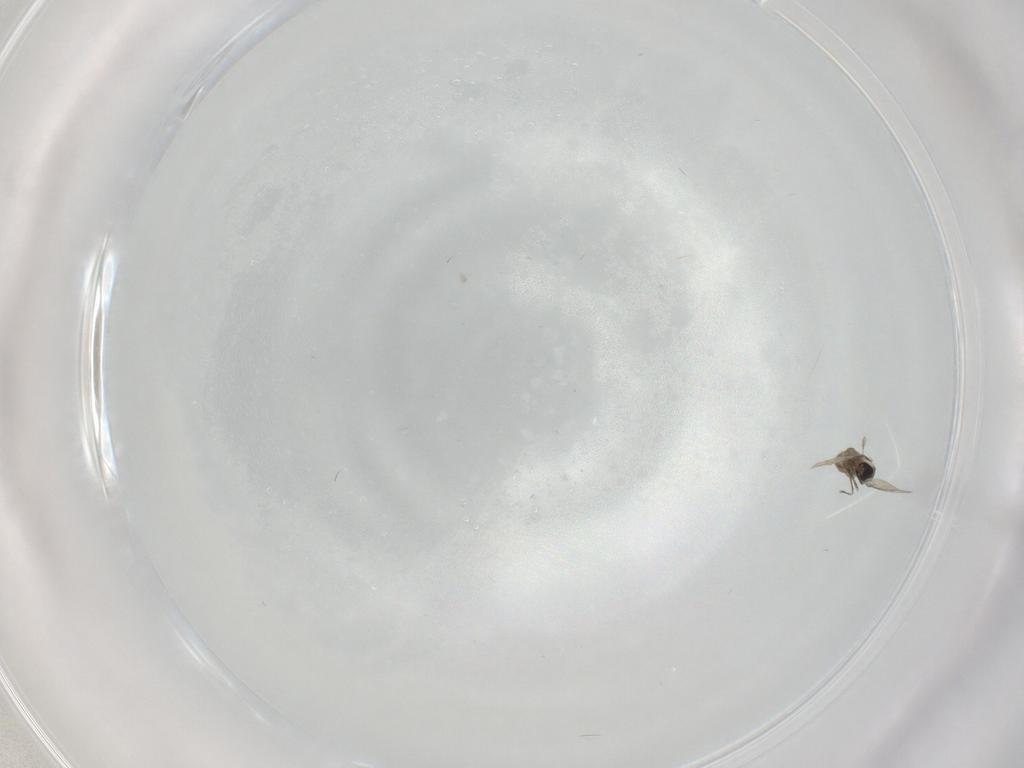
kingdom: Animalia
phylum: Arthropoda
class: Insecta
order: Diptera
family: Cecidomyiidae
